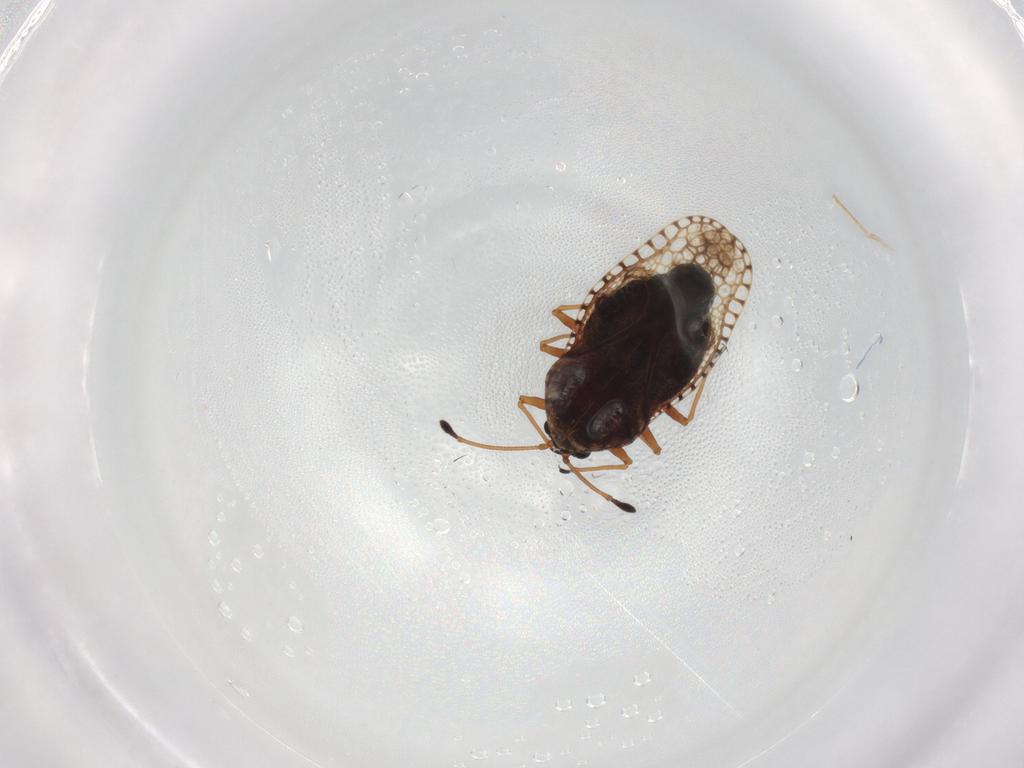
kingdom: Animalia
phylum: Arthropoda
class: Insecta
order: Hemiptera
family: Tingidae
